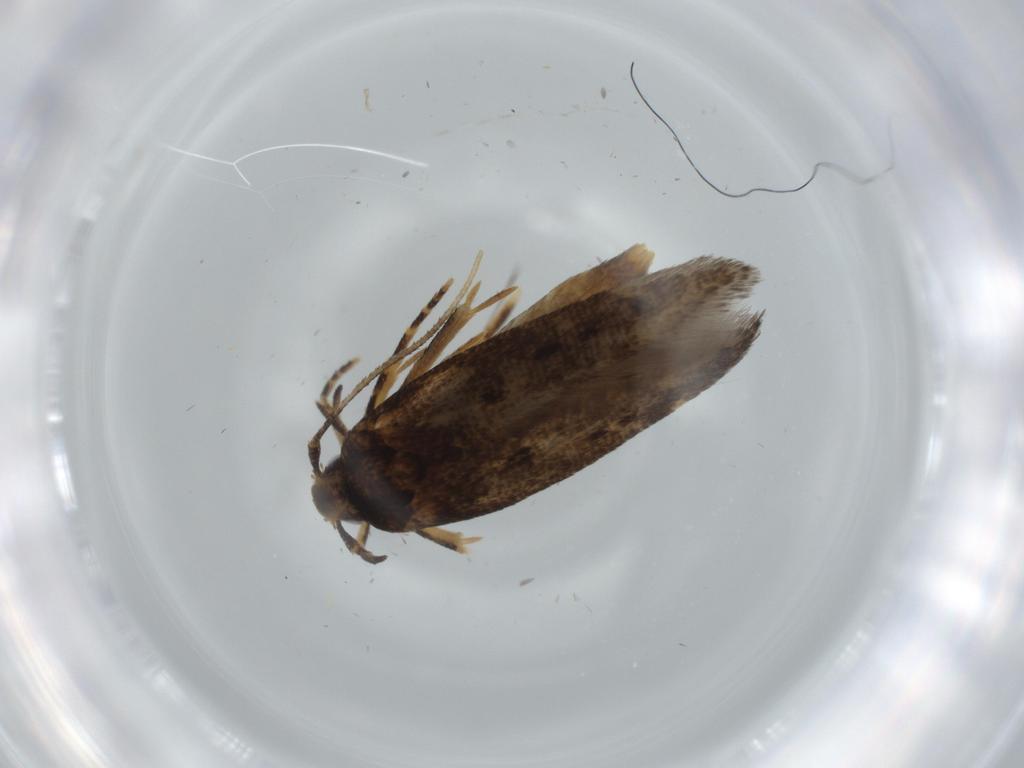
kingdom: Animalia
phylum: Arthropoda
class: Insecta
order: Lepidoptera
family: Cosmopterigidae
